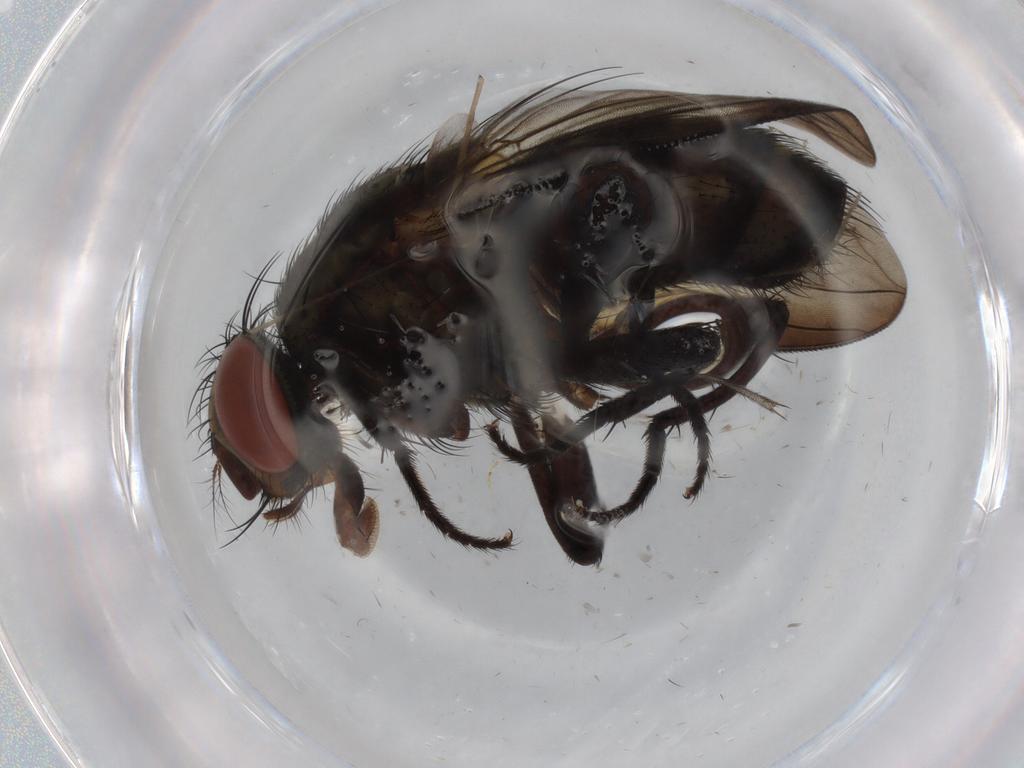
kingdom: Animalia
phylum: Arthropoda
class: Insecta
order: Diptera
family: Sarcophagidae
